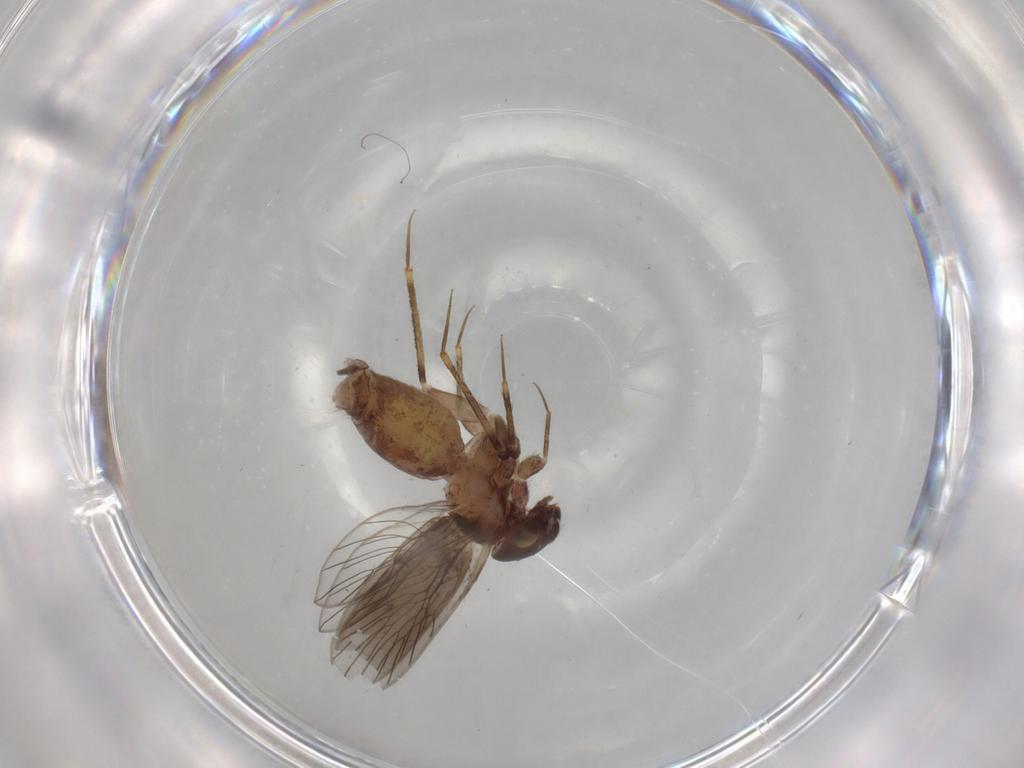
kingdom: Animalia
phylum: Arthropoda
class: Insecta
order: Psocodea
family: Lepidopsocidae
